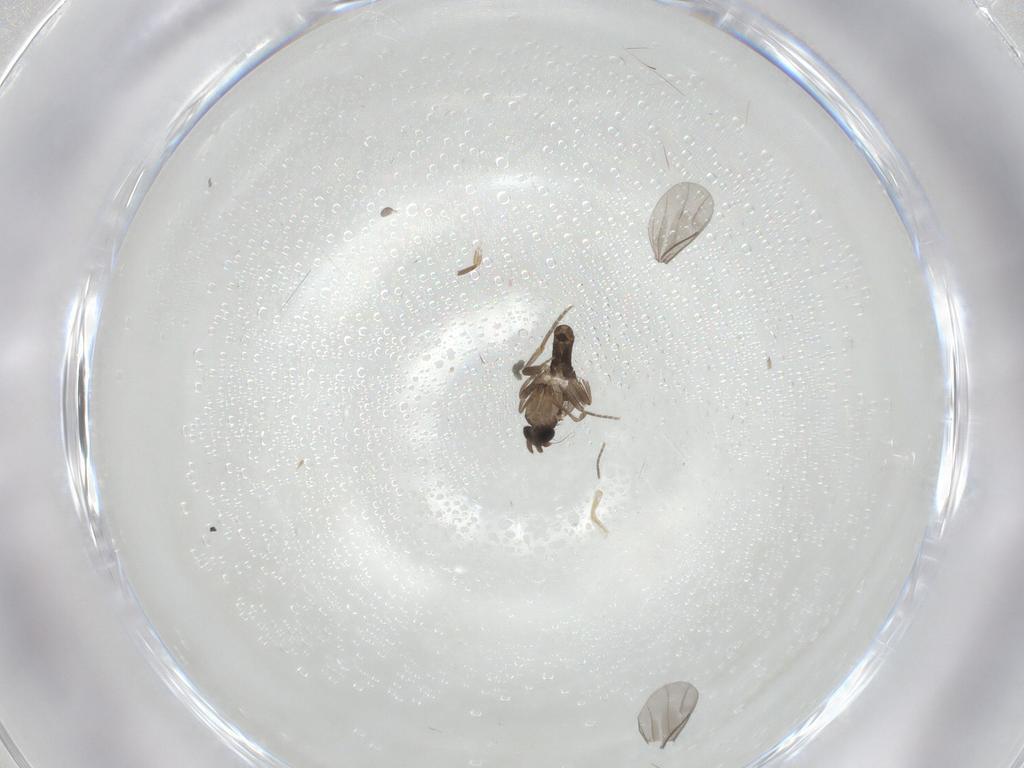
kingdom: Animalia
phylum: Arthropoda
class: Insecta
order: Diptera
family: Cecidomyiidae
